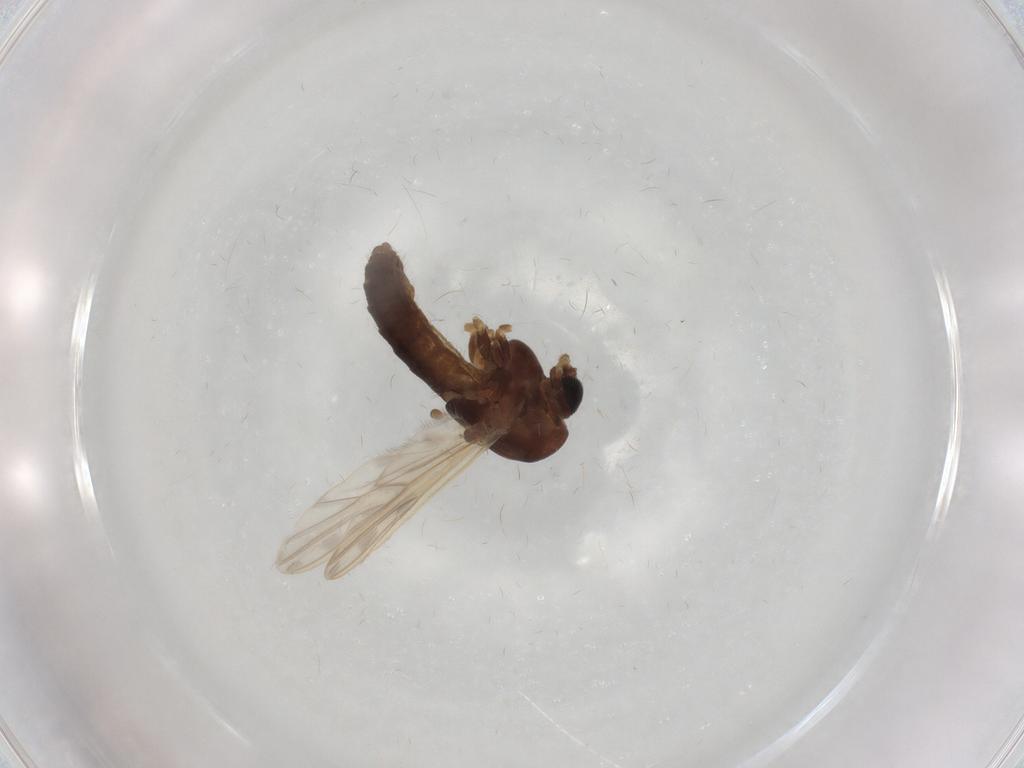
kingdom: Animalia
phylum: Arthropoda
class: Insecta
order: Diptera
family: Chironomidae
